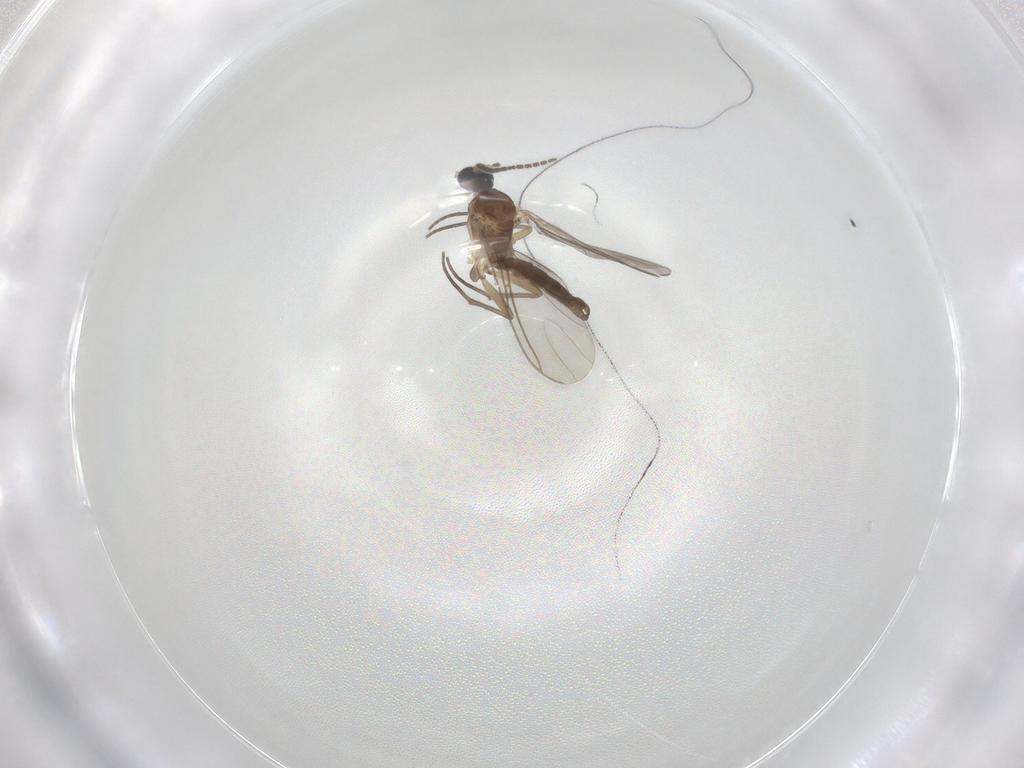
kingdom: Animalia
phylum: Arthropoda
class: Insecta
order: Diptera
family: Sciaridae
